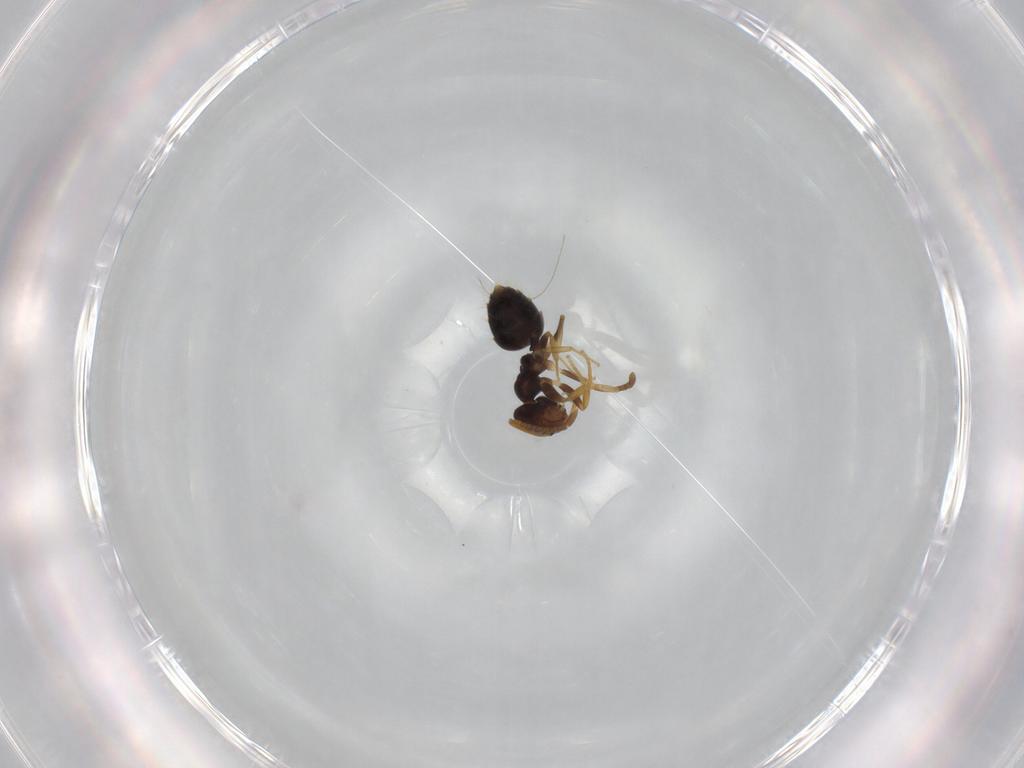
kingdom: Animalia
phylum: Arthropoda
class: Insecta
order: Hymenoptera
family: Formicidae
